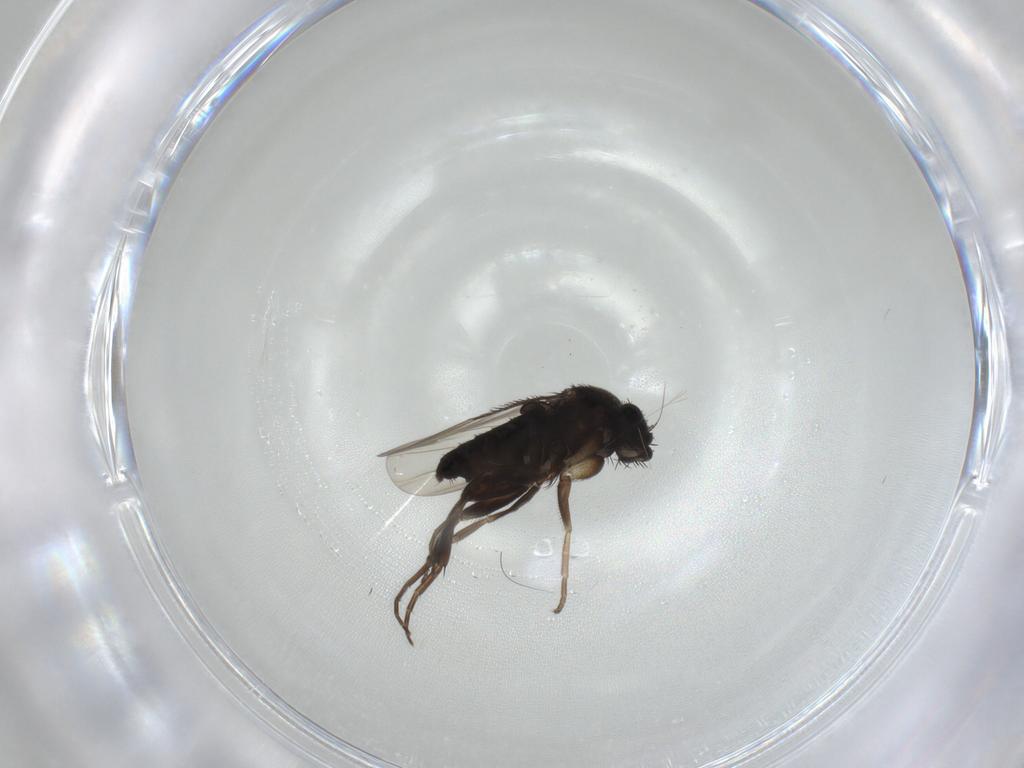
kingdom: Animalia
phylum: Arthropoda
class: Insecta
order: Diptera
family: Phoridae
